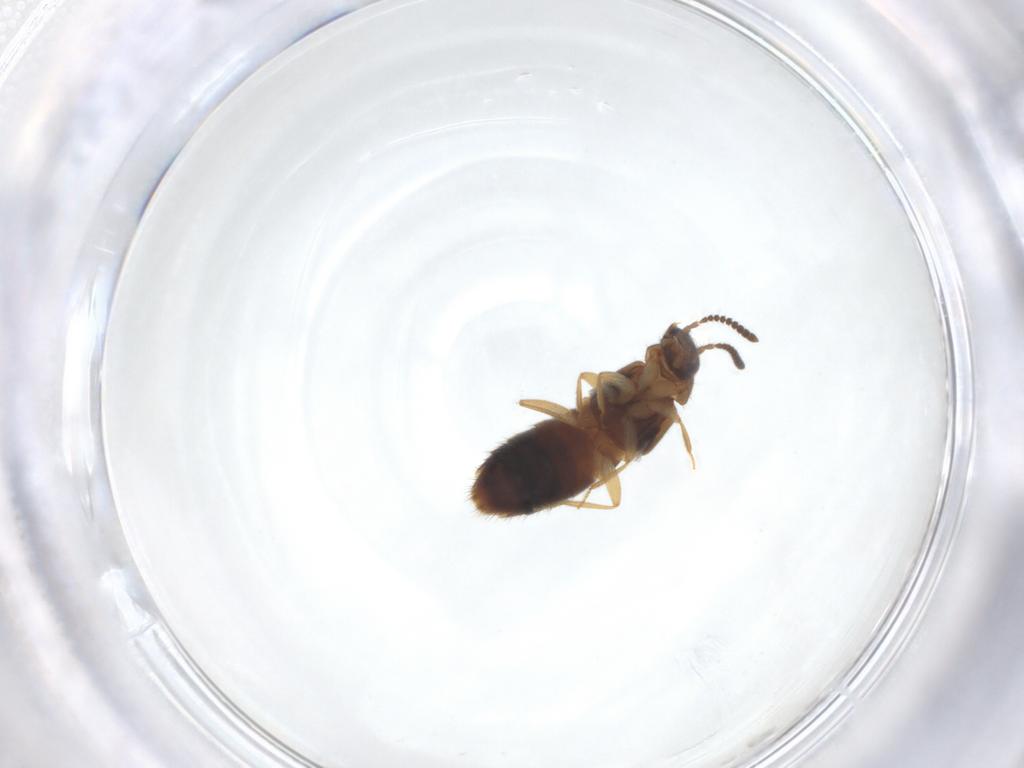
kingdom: Animalia
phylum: Arthropoda
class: Insecta
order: Coleoptera
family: Staphylinidae
